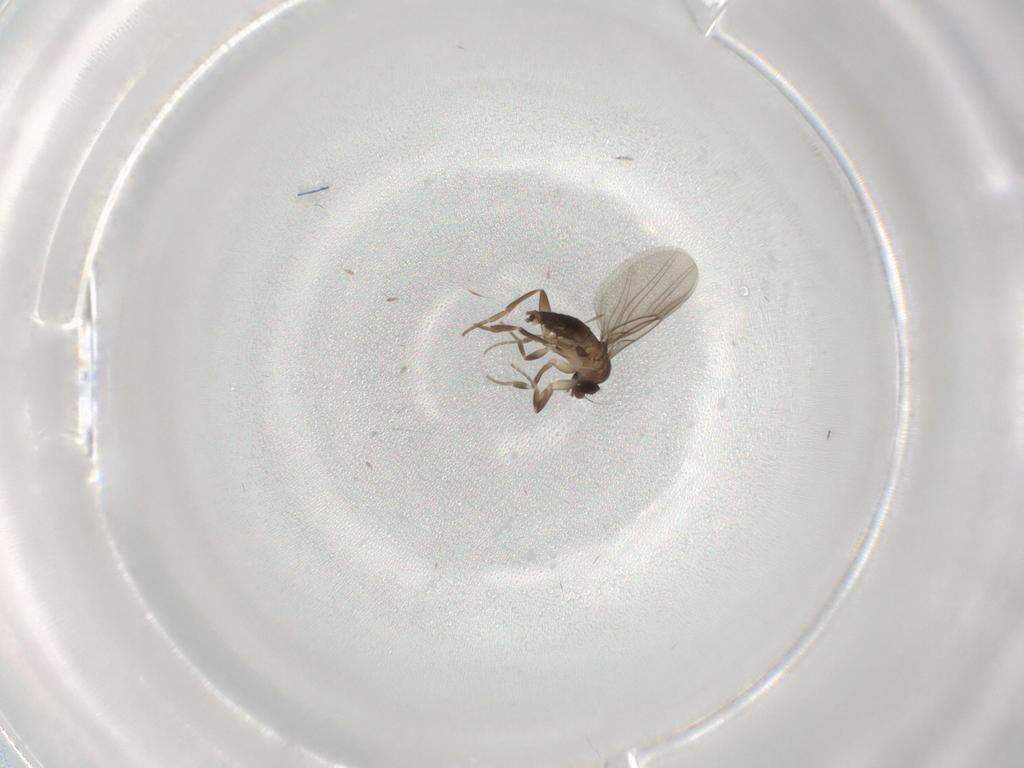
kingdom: Animalia
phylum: Arthropoda
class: Insecta
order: Diptera
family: Cecidomyiidae
